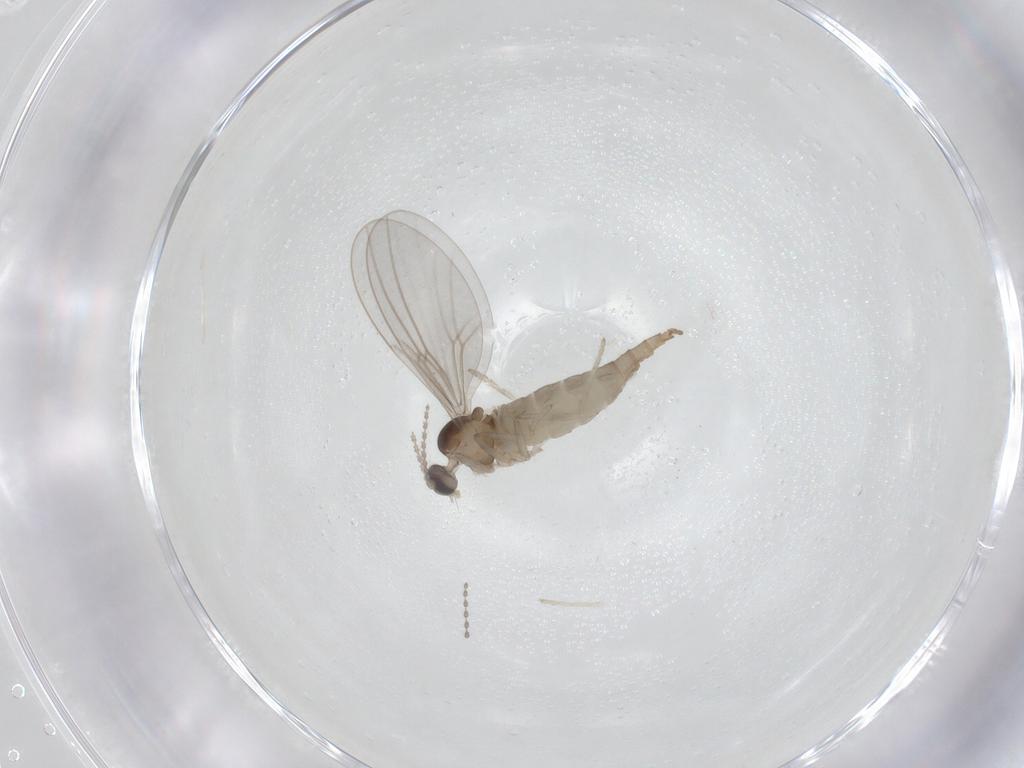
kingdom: Animalia
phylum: Arthropoda
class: Insecta
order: Diptera
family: Cecidomyiidae
